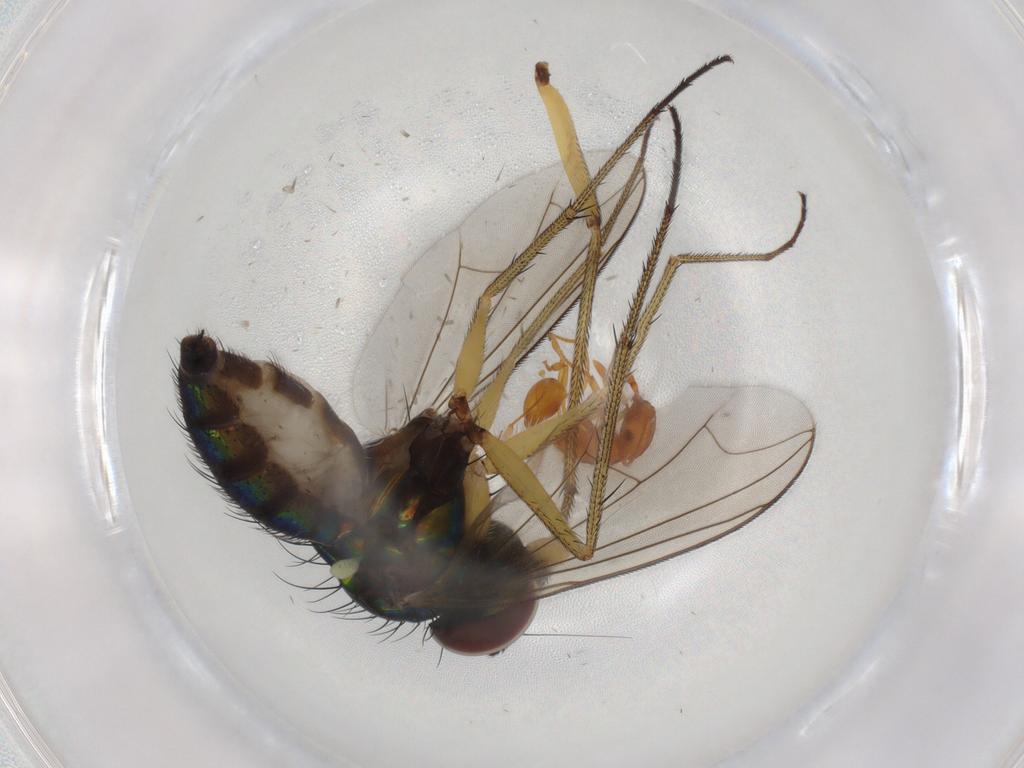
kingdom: Animalia
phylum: Arthropoda
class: Insecta
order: Diptera
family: Dolichopodidae
